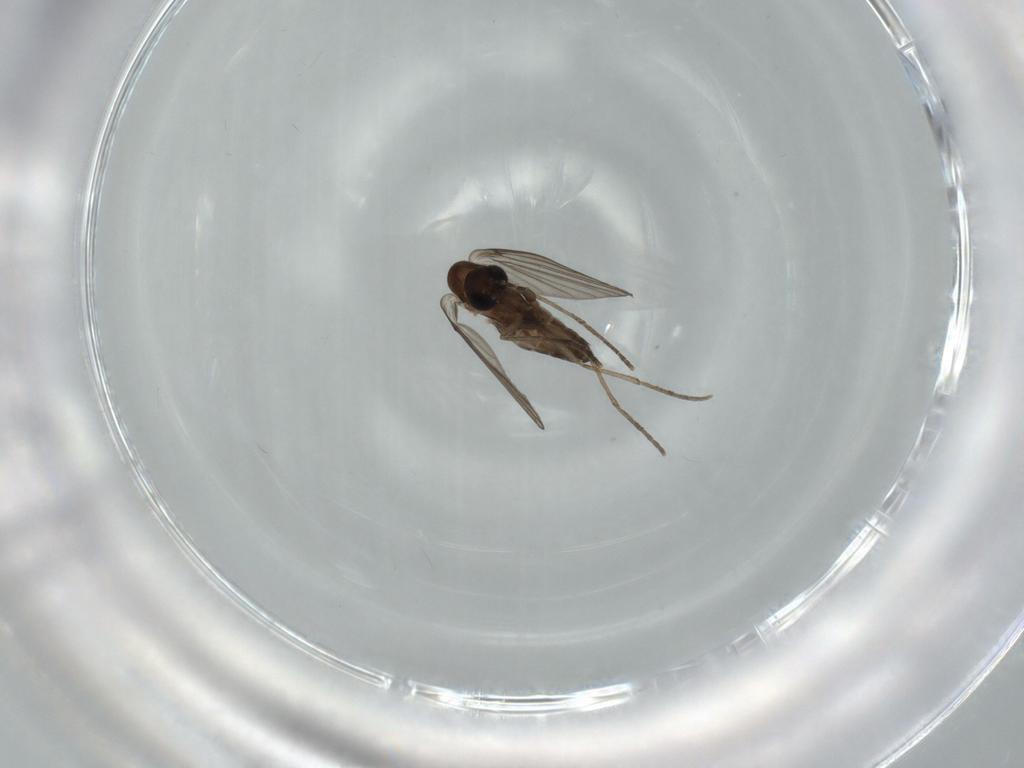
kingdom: Animalia
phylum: Arthropoda
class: Insecta
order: Diptera
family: Psychodidae
